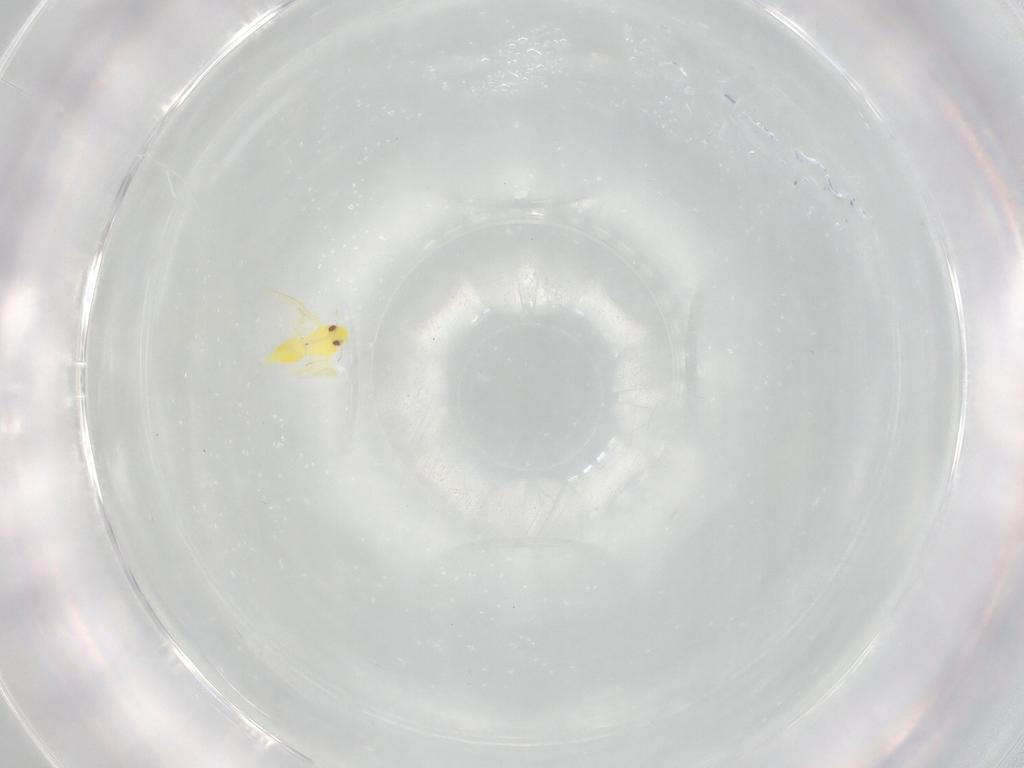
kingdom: Animalia
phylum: Arthropoda
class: Insecta
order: Hemiptera
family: Aleyrodidae
